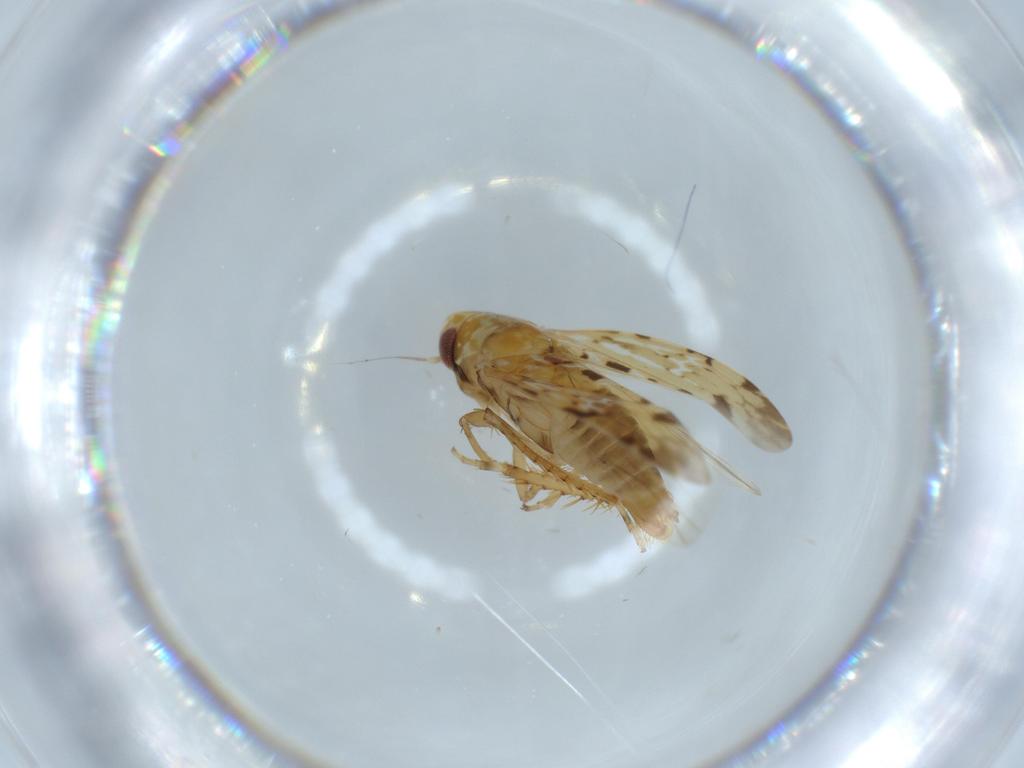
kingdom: Animalia
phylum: Arthropoda
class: Insecta
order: Hemiptera
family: Cicadellidae
